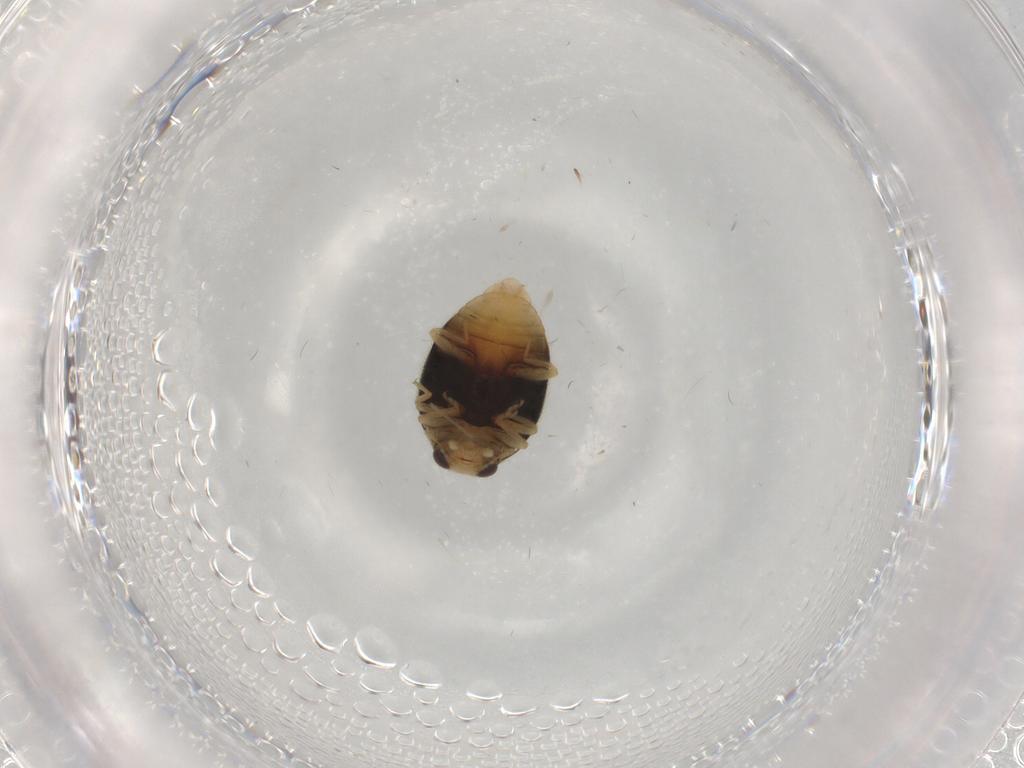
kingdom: Animalia
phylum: Arthropoda
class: Insecta
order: Coleoptera
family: Coccinellidae
